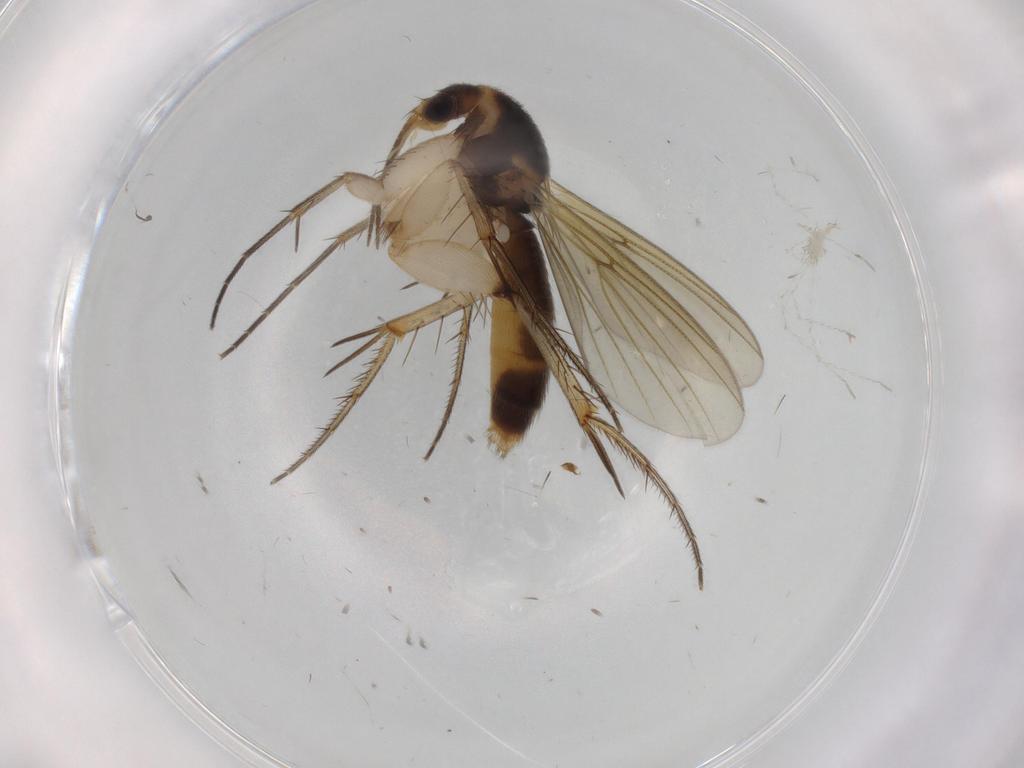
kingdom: Animalia
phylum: Arthropoda
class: Insecta
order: Diptera
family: Mycetophilidae
